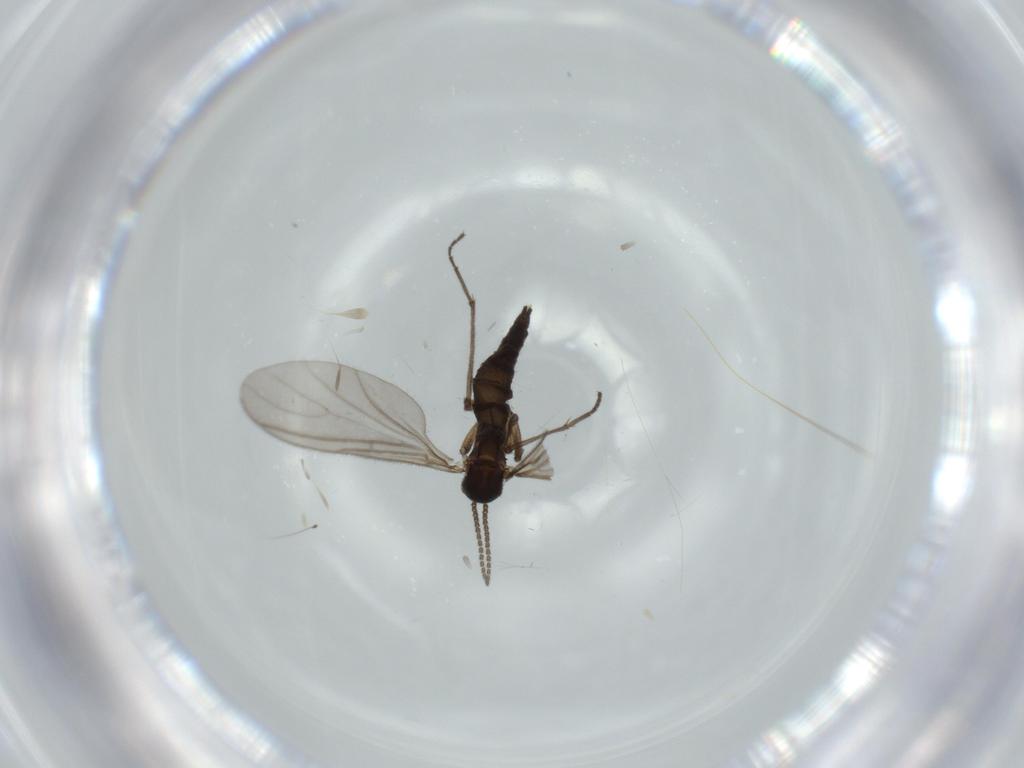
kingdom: Animalia
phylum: Arthropoda
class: Insecta
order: Diptera
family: Sciaridae
